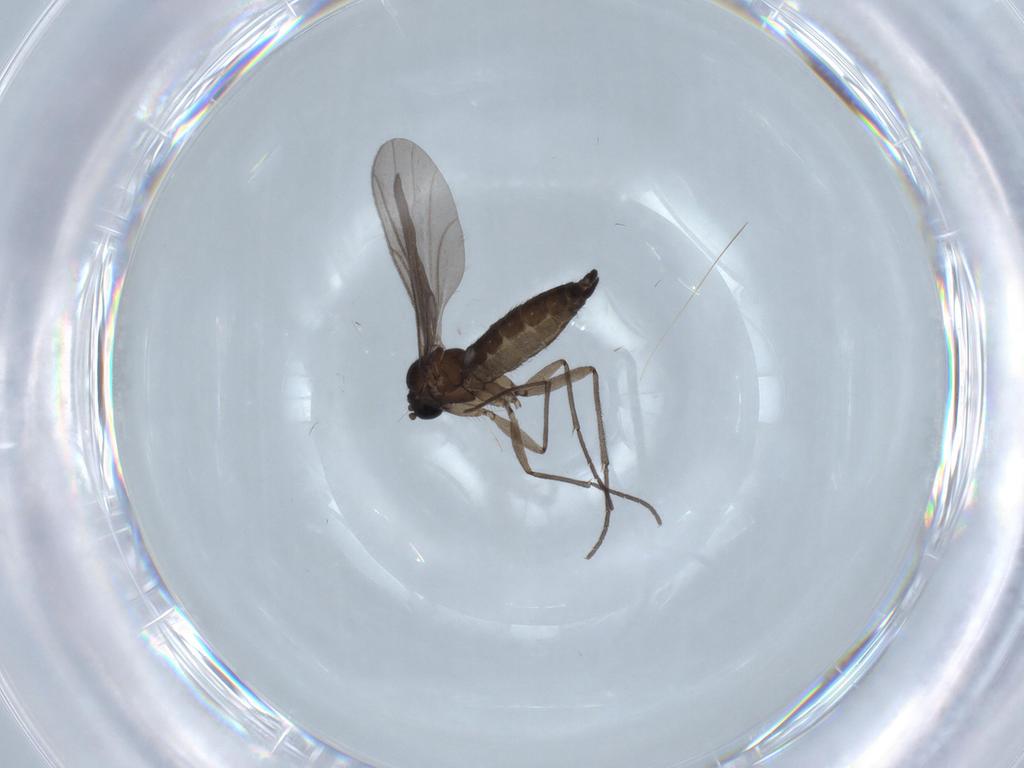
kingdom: Animalia
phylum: Arthropoda
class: Insecta
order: Diptera
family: Sciaridae
